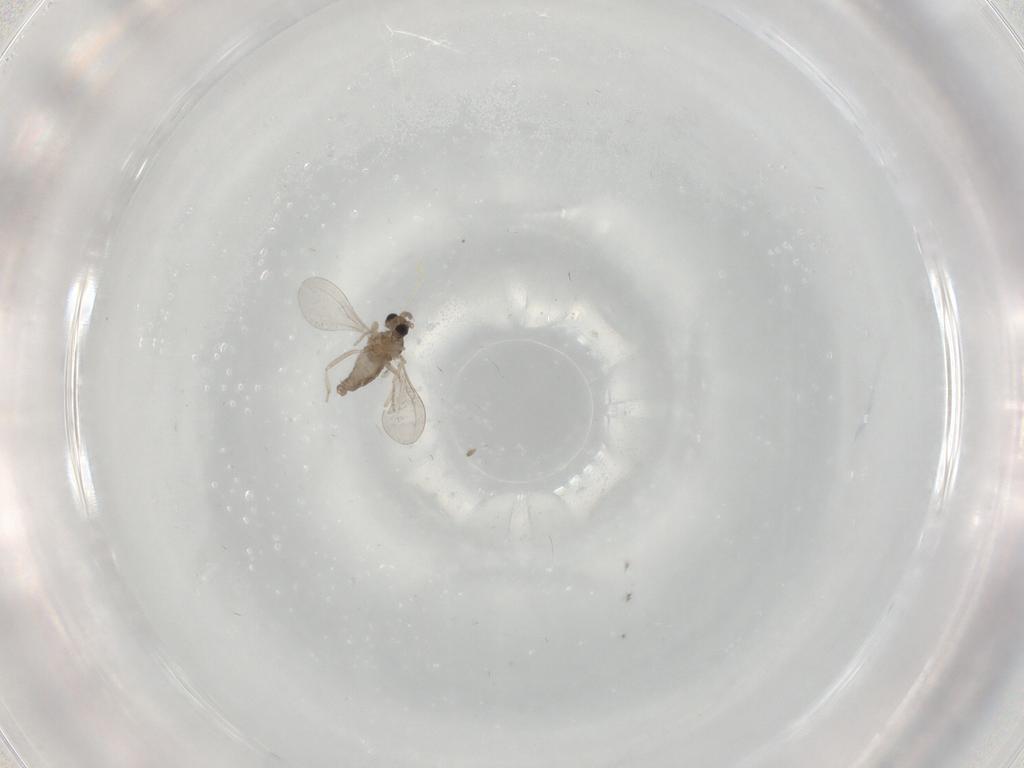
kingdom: Animalia
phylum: Arthropoda
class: Insecta
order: Diptera
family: Cecidomyiidae
